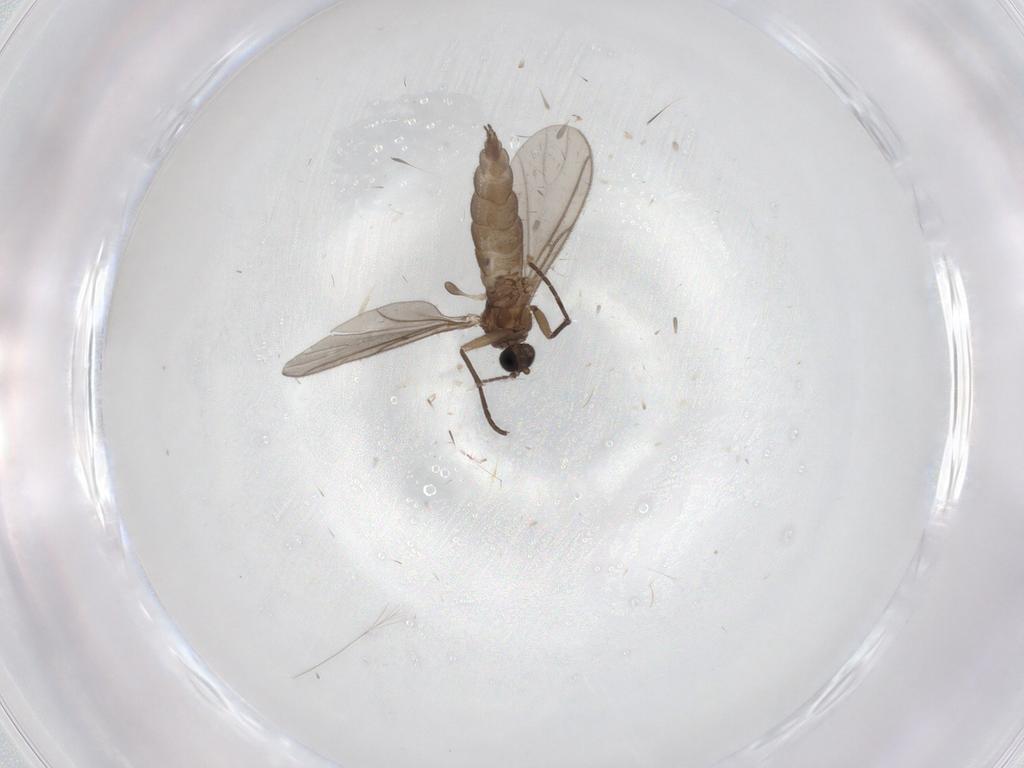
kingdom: Animalia
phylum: Arthropoda
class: Insecta
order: Diptera
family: Sciaridae
